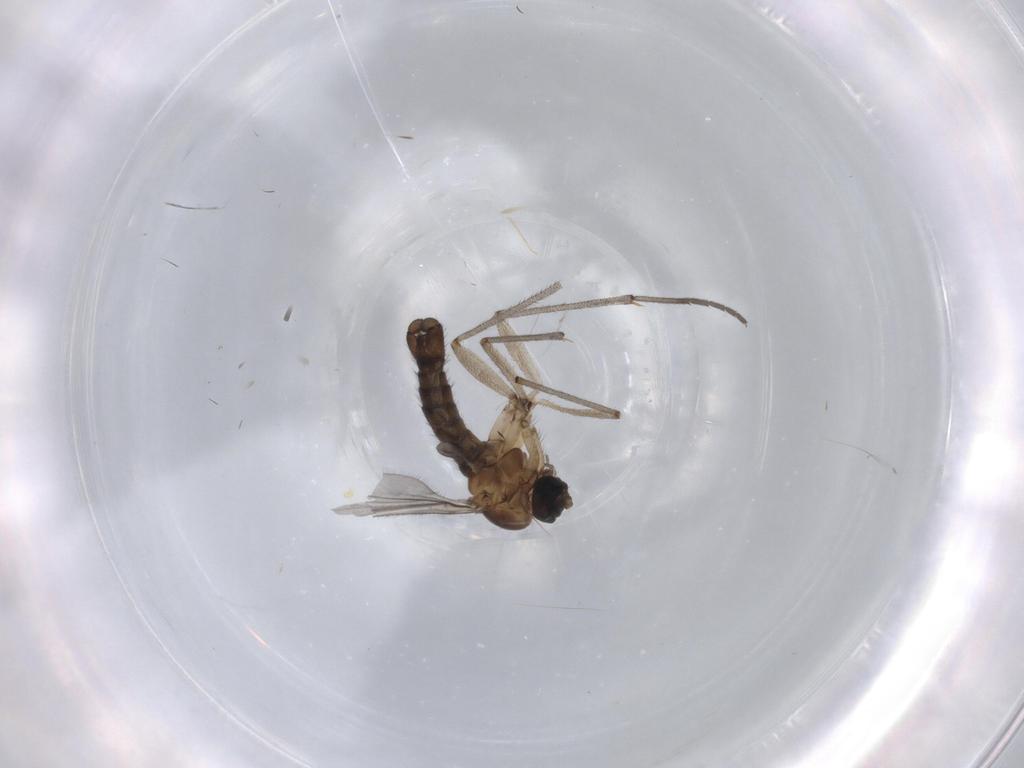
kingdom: Animalia
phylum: Arthropoda
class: Insecta
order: Diptera
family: Sciaridae
